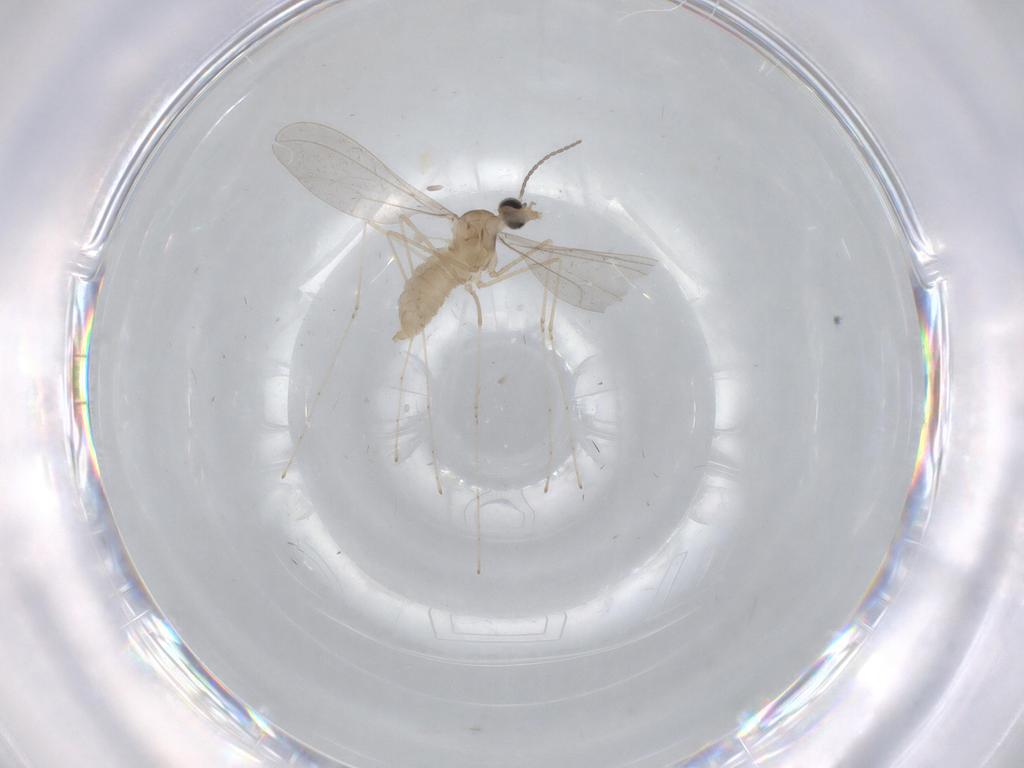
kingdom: Animalia
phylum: Arthropoda
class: Insecta
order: Diptera
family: Cecidomyiidae
